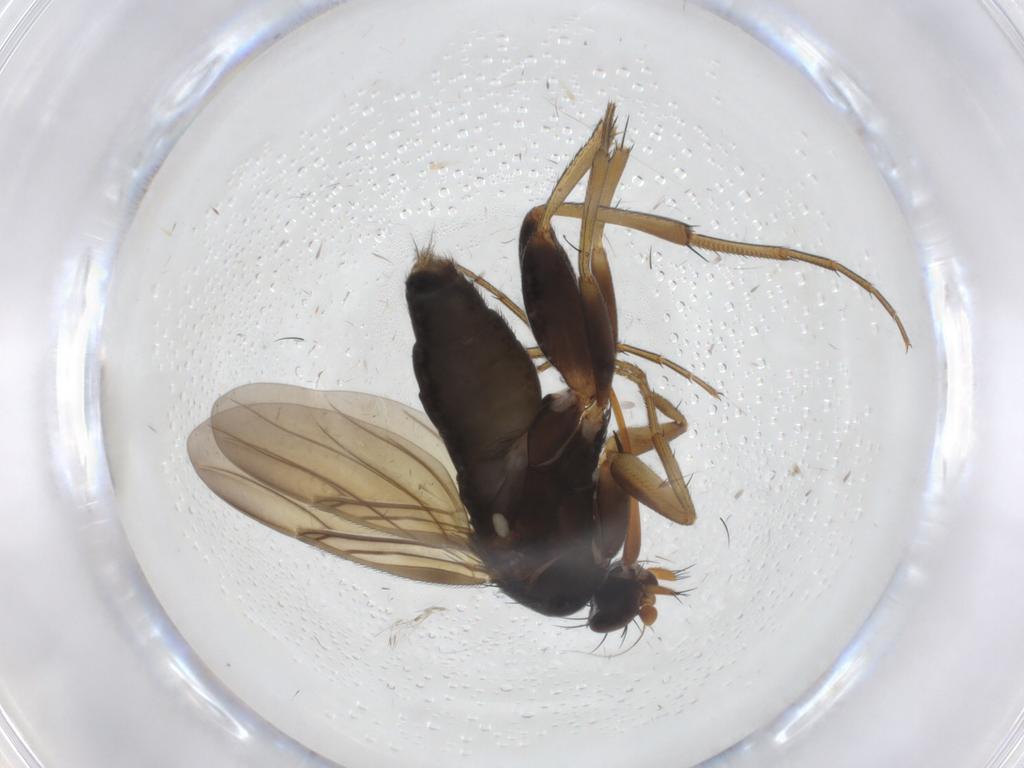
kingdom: Animalia
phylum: Arthropoda
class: Insecta
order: Diptera
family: Phoridae
